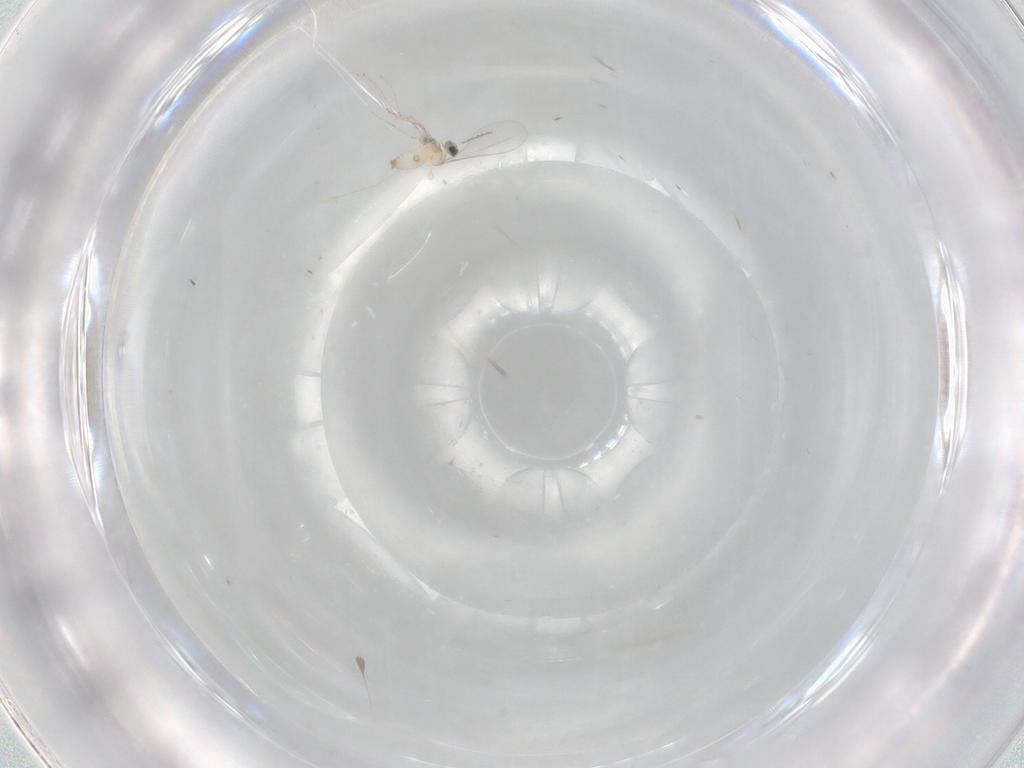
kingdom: Animalia
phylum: Arthropoda
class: Insecta
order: Diptera
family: Cecidomyiidae
